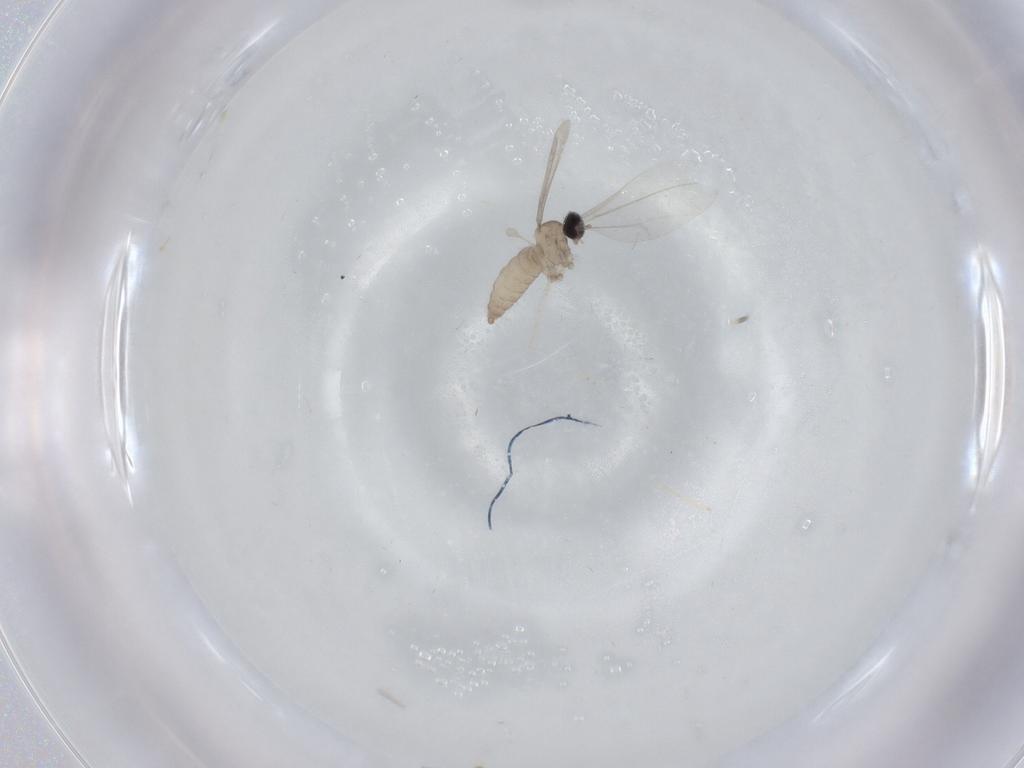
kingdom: Animalia
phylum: Arthropoda
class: Insecta
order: Diptera
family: Cecidomyiidae
